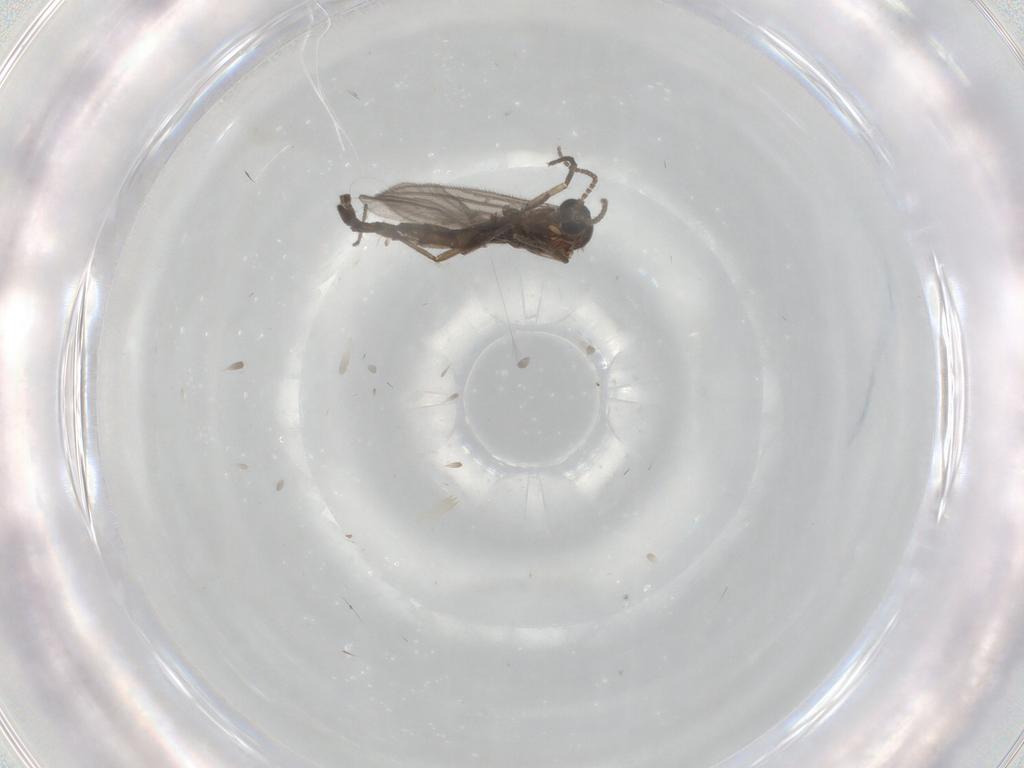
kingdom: Animalia
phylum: Arthropoda
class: Insecta
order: Diptera
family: Sciaridae
